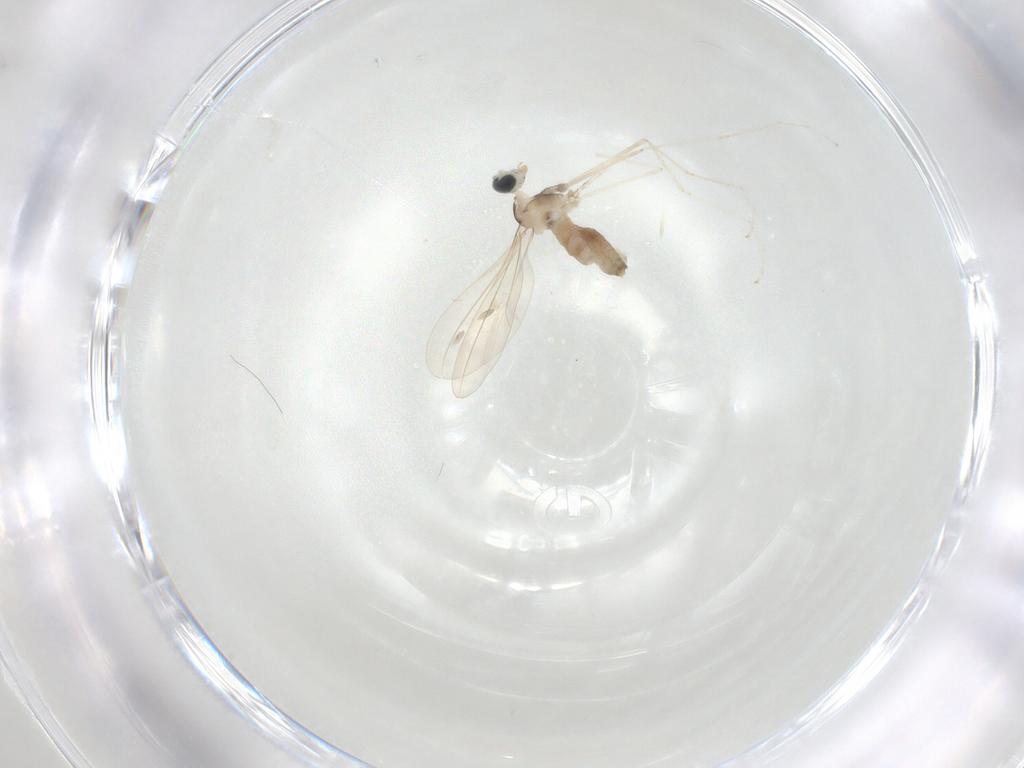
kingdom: Animalia
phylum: Arthropoda
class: Insecta
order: Diptera
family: Cecidomyiidae
